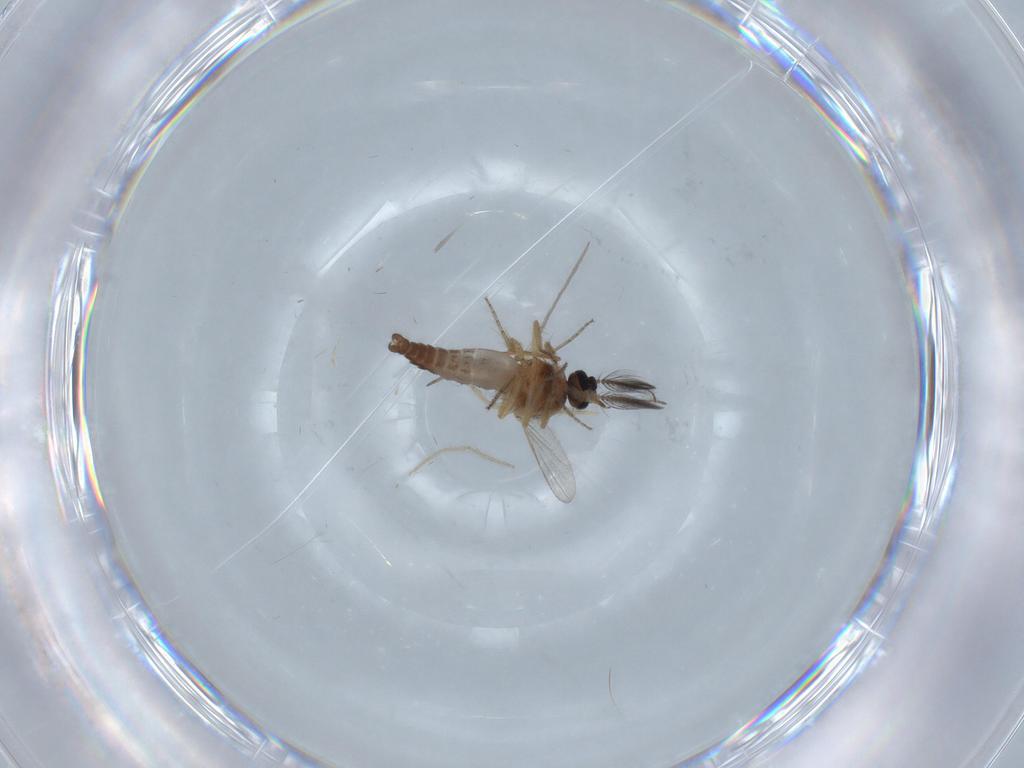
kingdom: Animalia
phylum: Arthropoda
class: Insecta
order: Diptera
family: Ceratopogonidae
